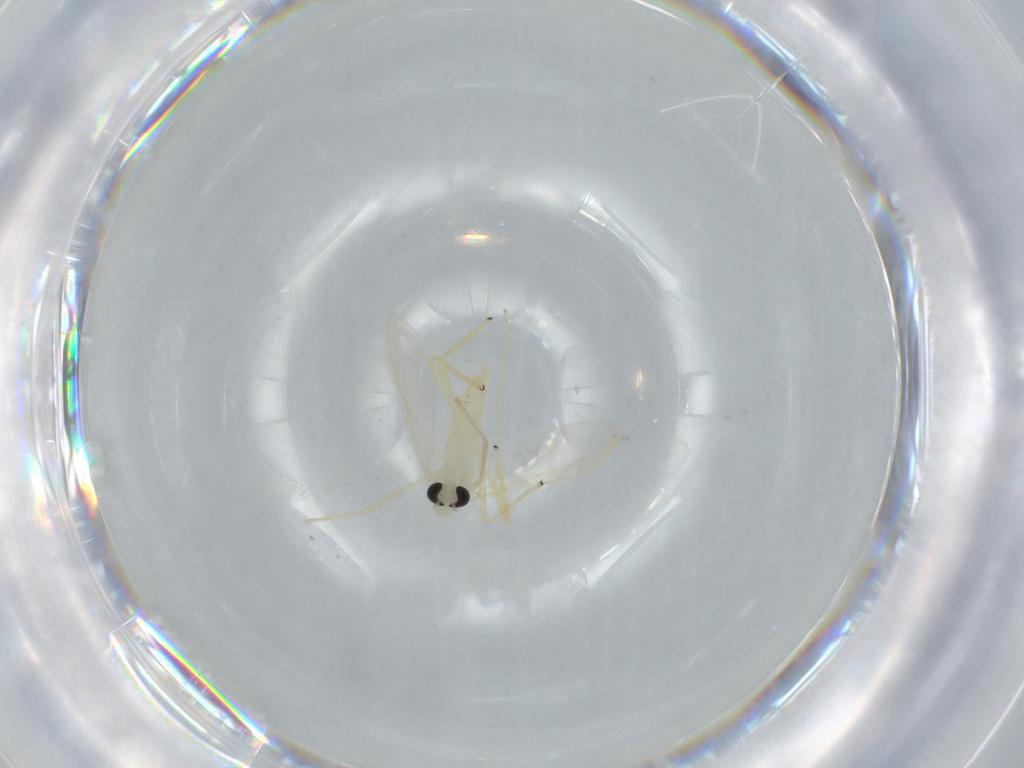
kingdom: Animalia
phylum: Arthropoda
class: Insecta
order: Diptera
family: Chironomidae
